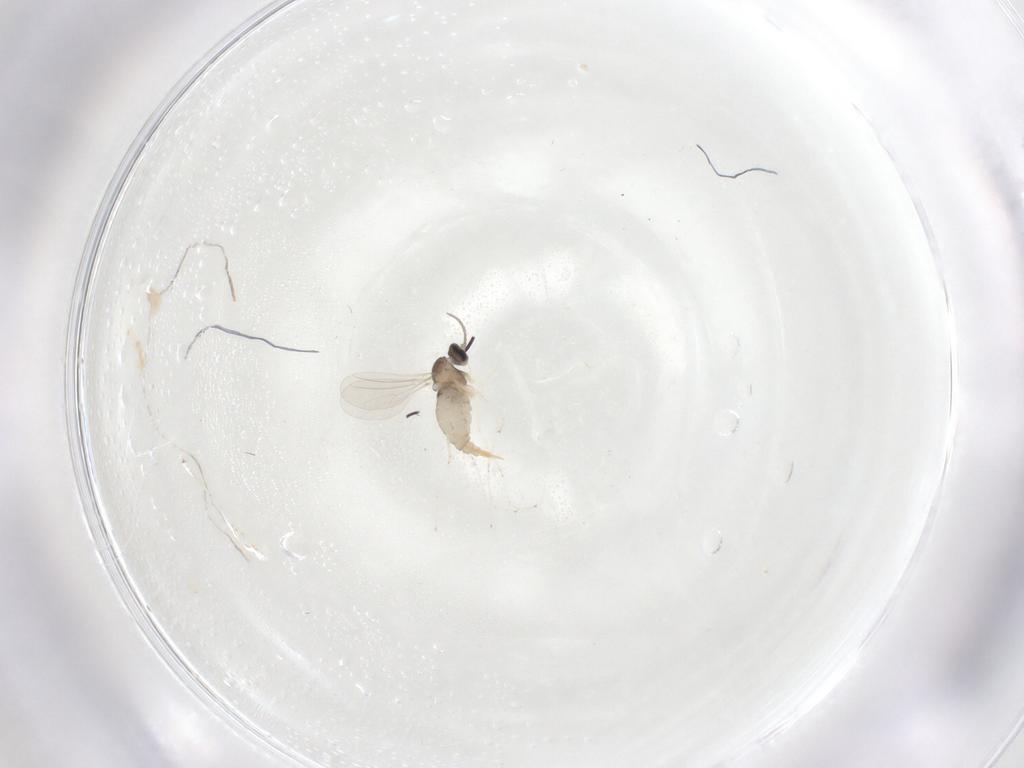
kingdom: Animalia
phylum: Arthropoda
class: Insecta
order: Diptera
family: Cecidomyiidae
